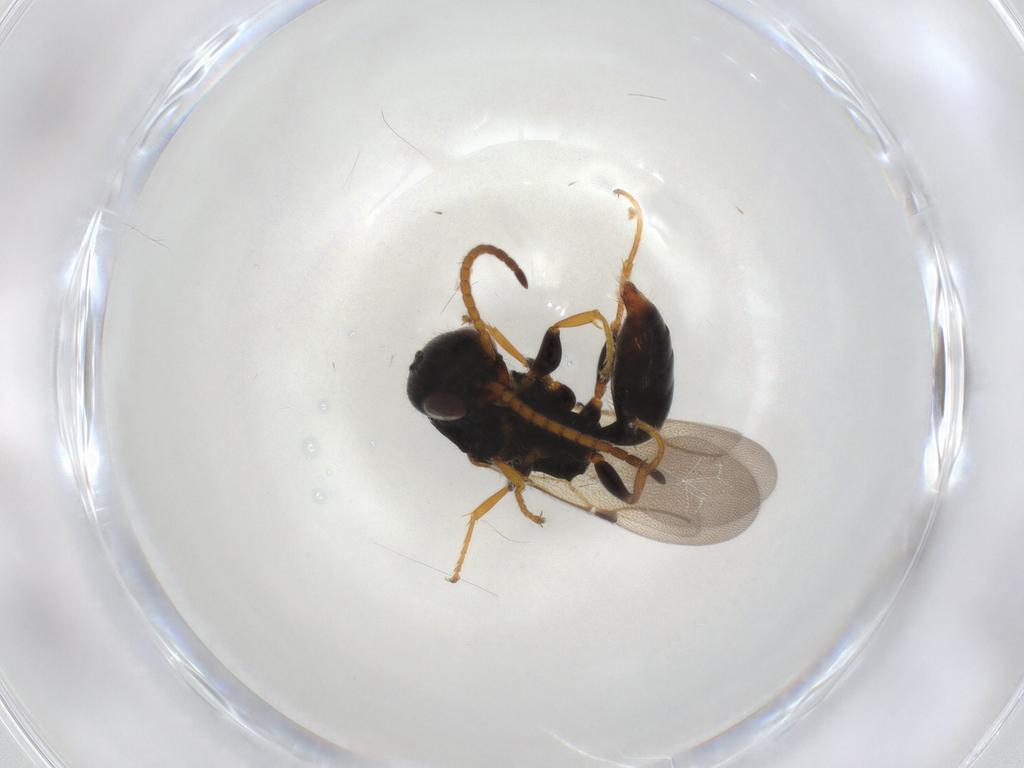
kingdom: Animalia
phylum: Arthropoda
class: Insecta
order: Hymenoptera
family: Bethylidae
